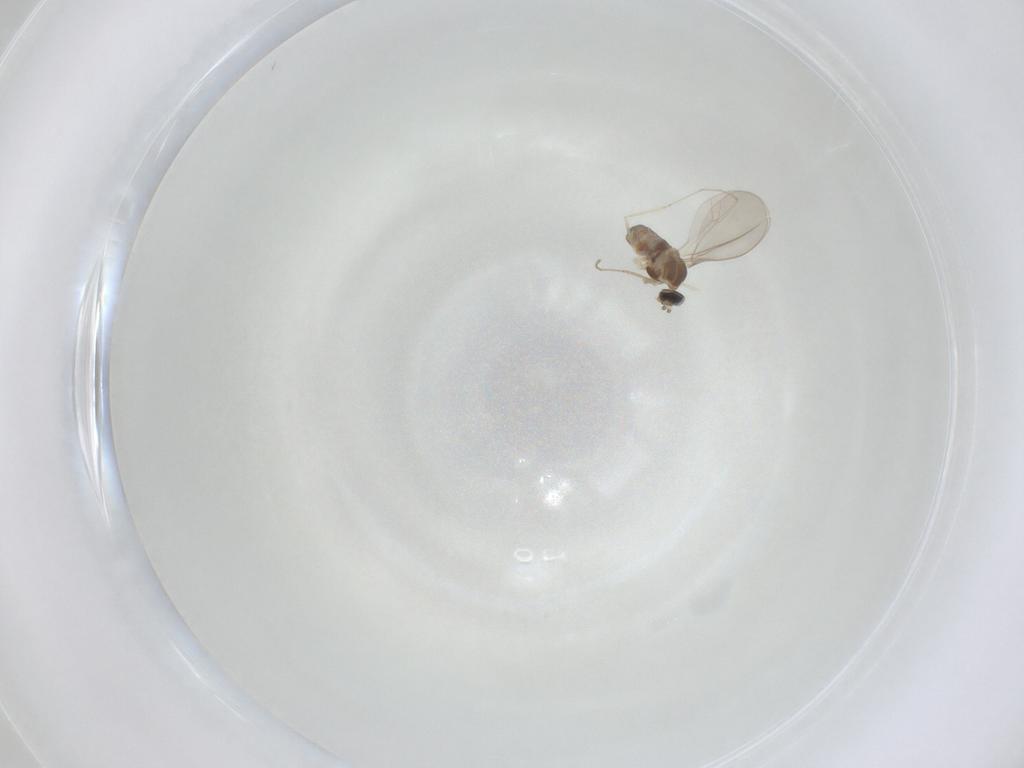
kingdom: Animalia
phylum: Arthropoda
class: Insecta
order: Diptera
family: Cecidomyiidae
